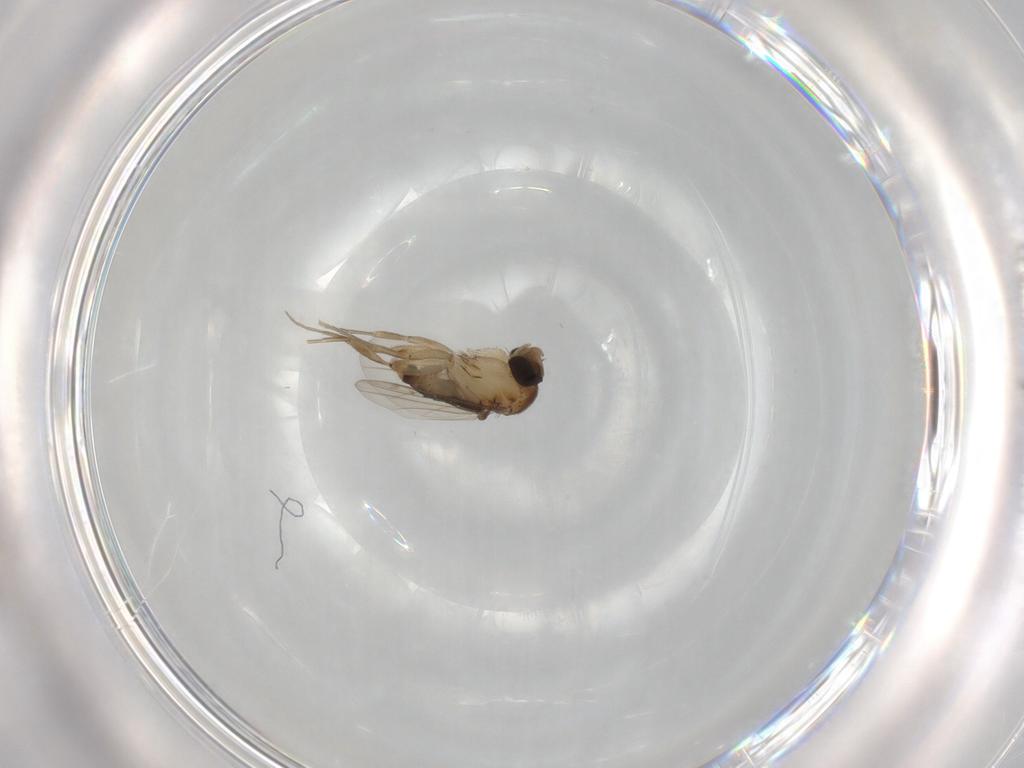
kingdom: Animalia
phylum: Arthropoda
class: Insecta
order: Diptera
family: Phoridae
